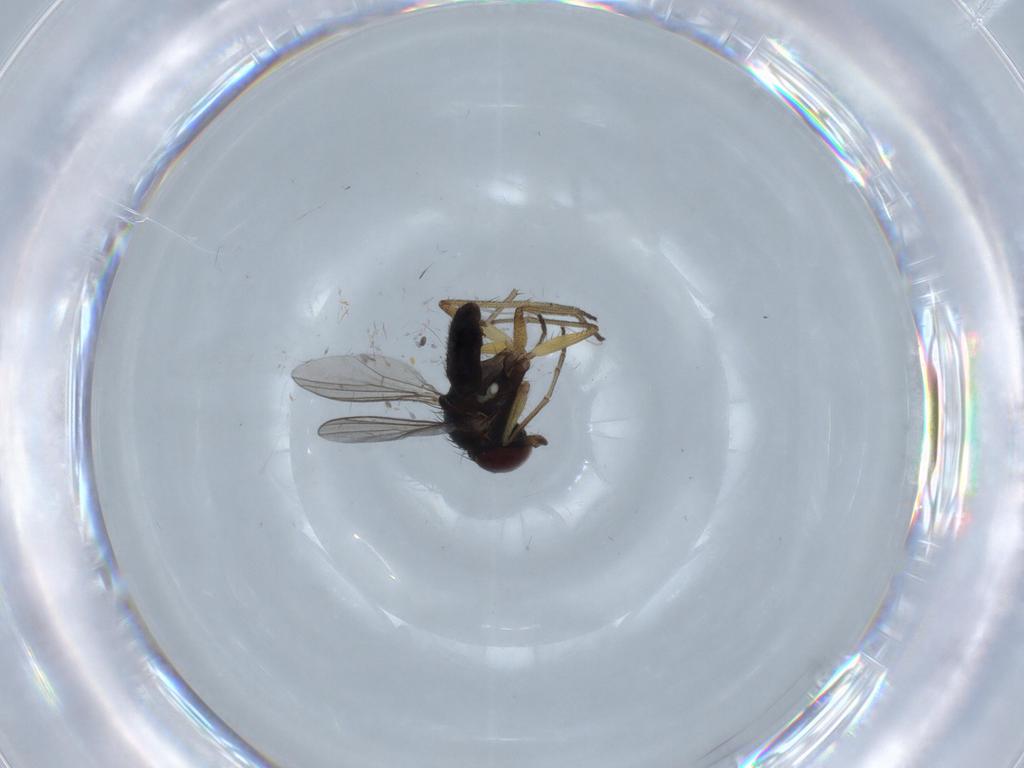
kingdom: Animalia
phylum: Arthropoda
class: Insecta
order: Diptera
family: Dolichopodidae
